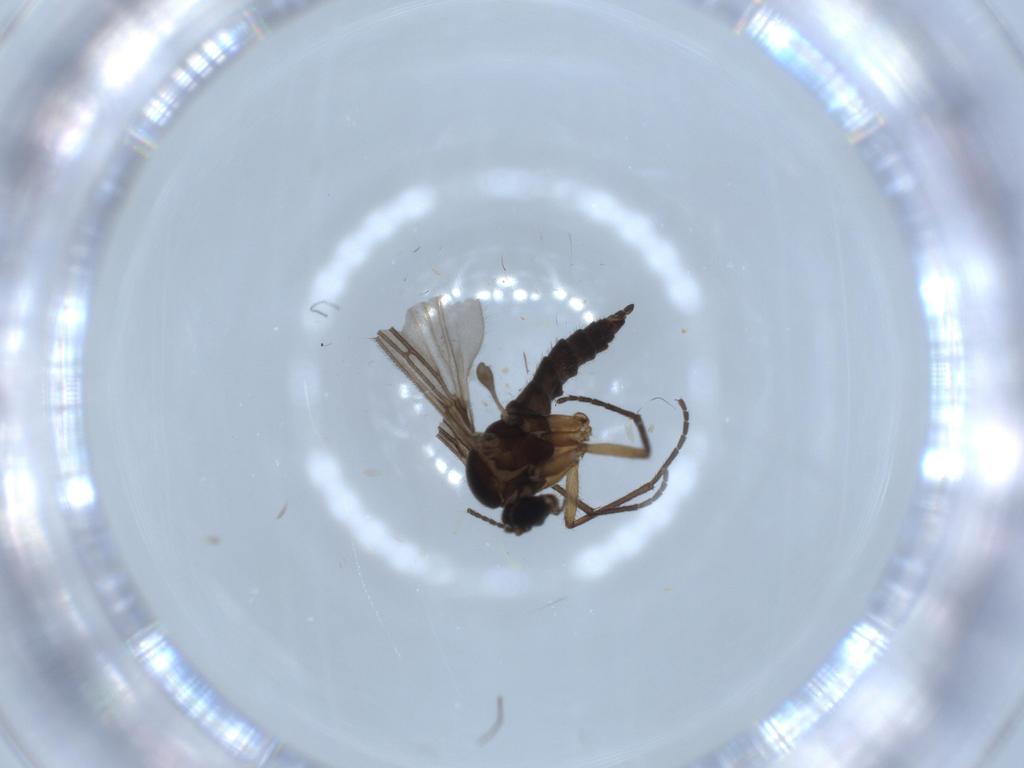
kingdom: Animalia
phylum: Arthropoda
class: Insecta
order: Diptera
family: Sciaridae
